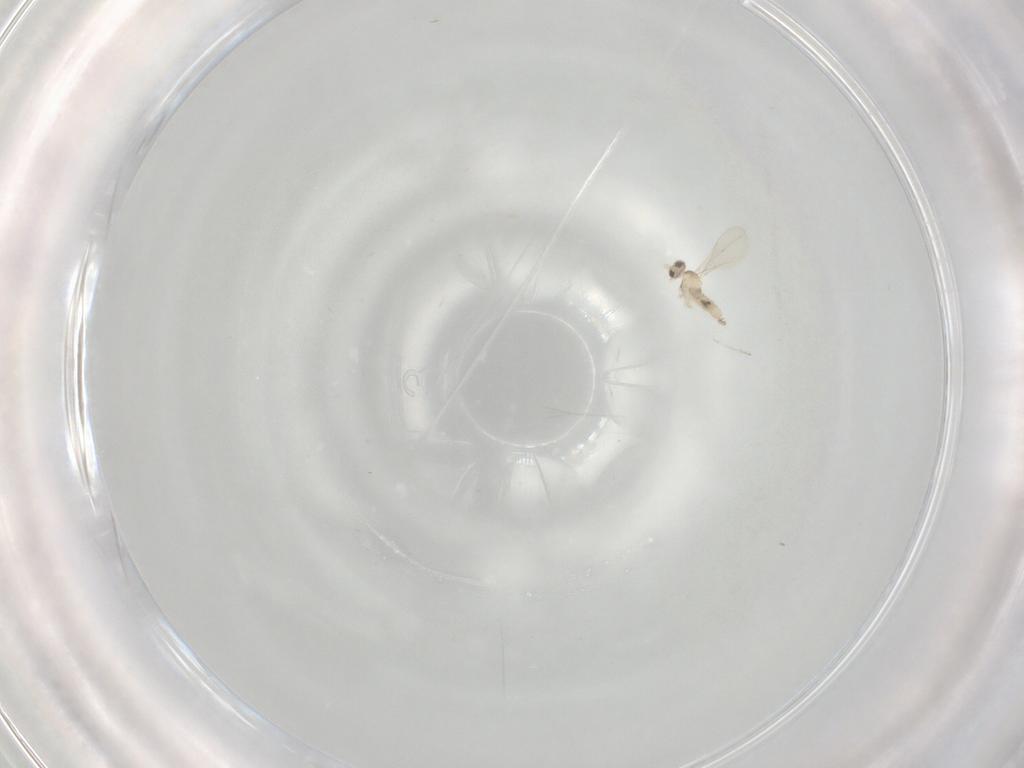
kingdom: Animalia
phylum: Arthropoda
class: Insecta
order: Diptera
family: Cecidomyiidae
